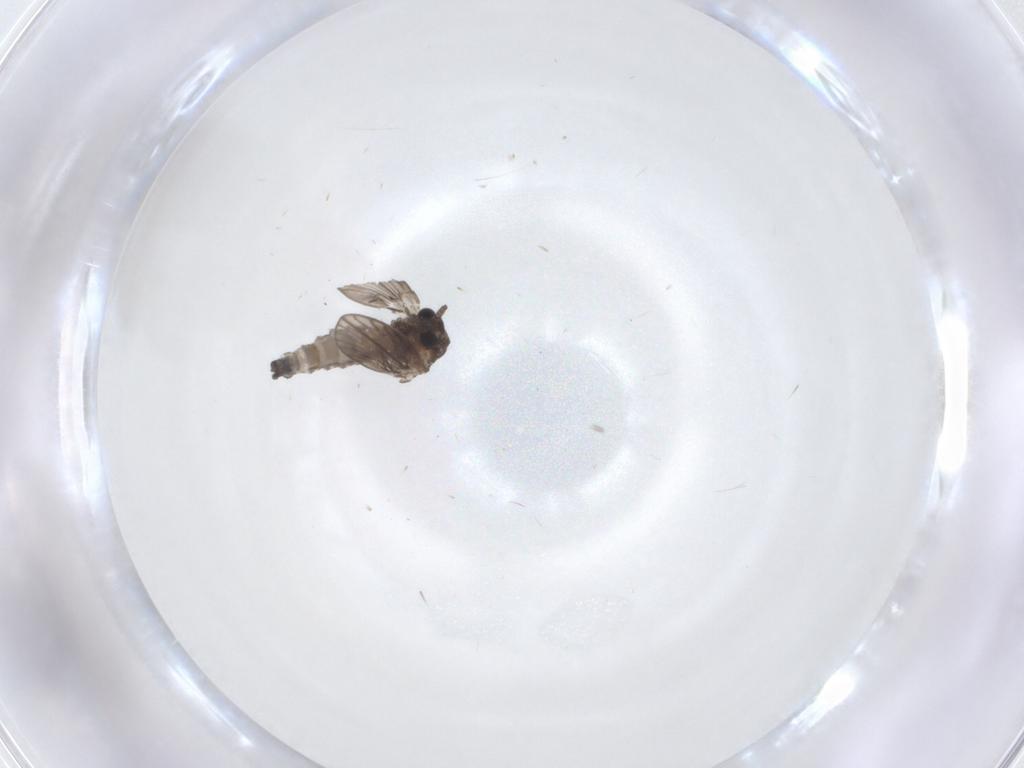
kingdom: Animalia
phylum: Arthropoda
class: Insecta
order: Diptera
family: Psychodidae
